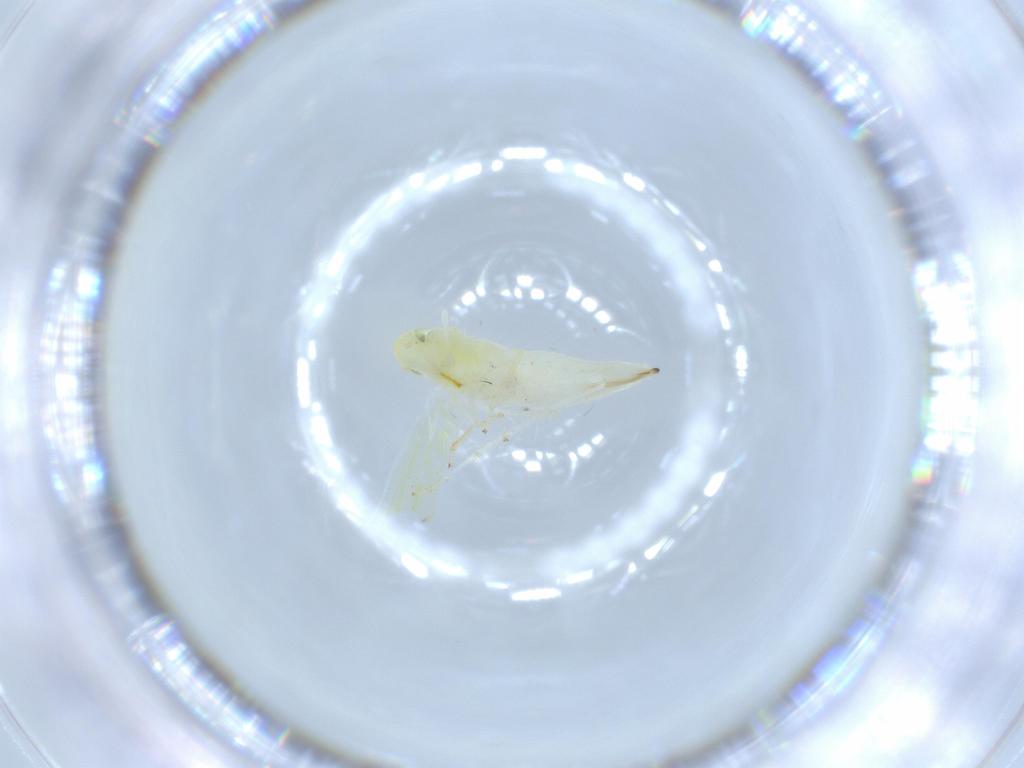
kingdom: Animalia
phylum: Arthropoda
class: Insecta
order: Hemiptera
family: Cicadellidae
